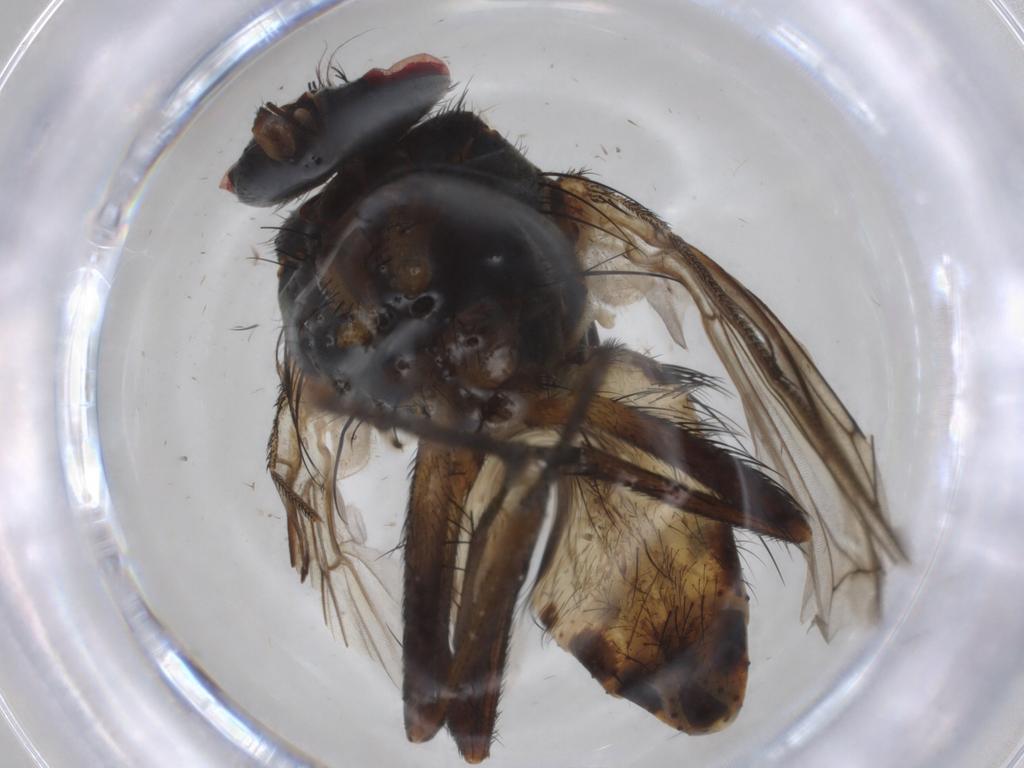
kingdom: Animalia
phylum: Arthropoda
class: Insecta
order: Diptera
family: Muscidae
